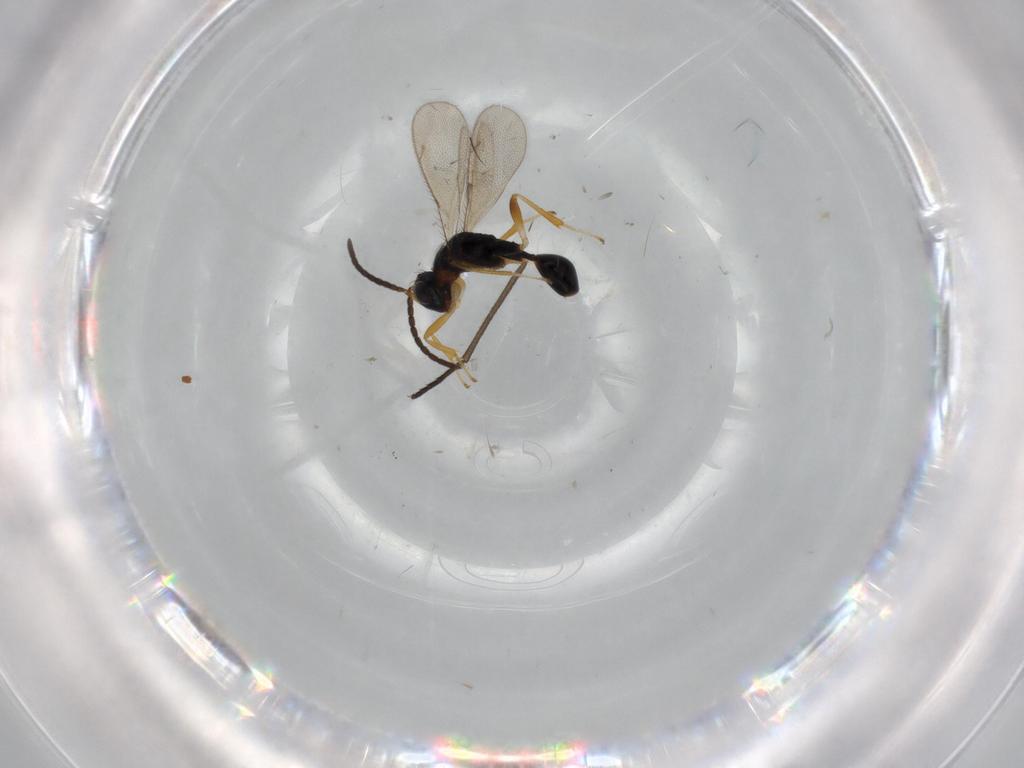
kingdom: Animalia
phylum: Arthropoda
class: Insecta
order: Hymenoptera
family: Diparidae
